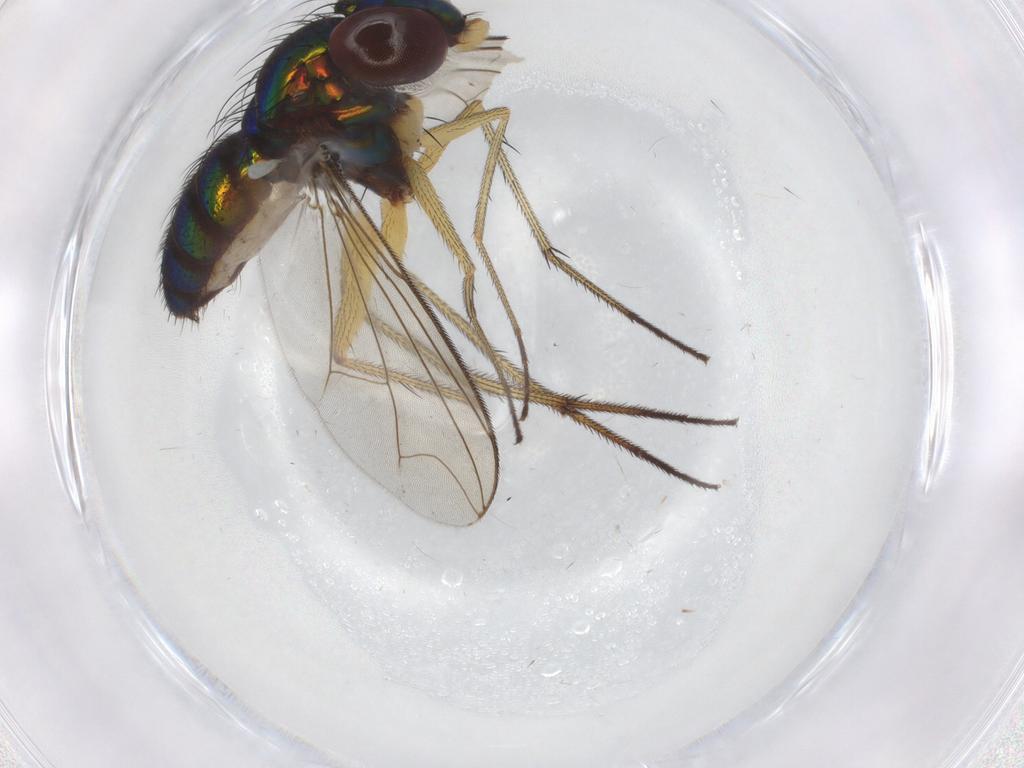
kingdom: Animalia
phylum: Arthropoda
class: Insecta
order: Diptera
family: Dolichopodidae
